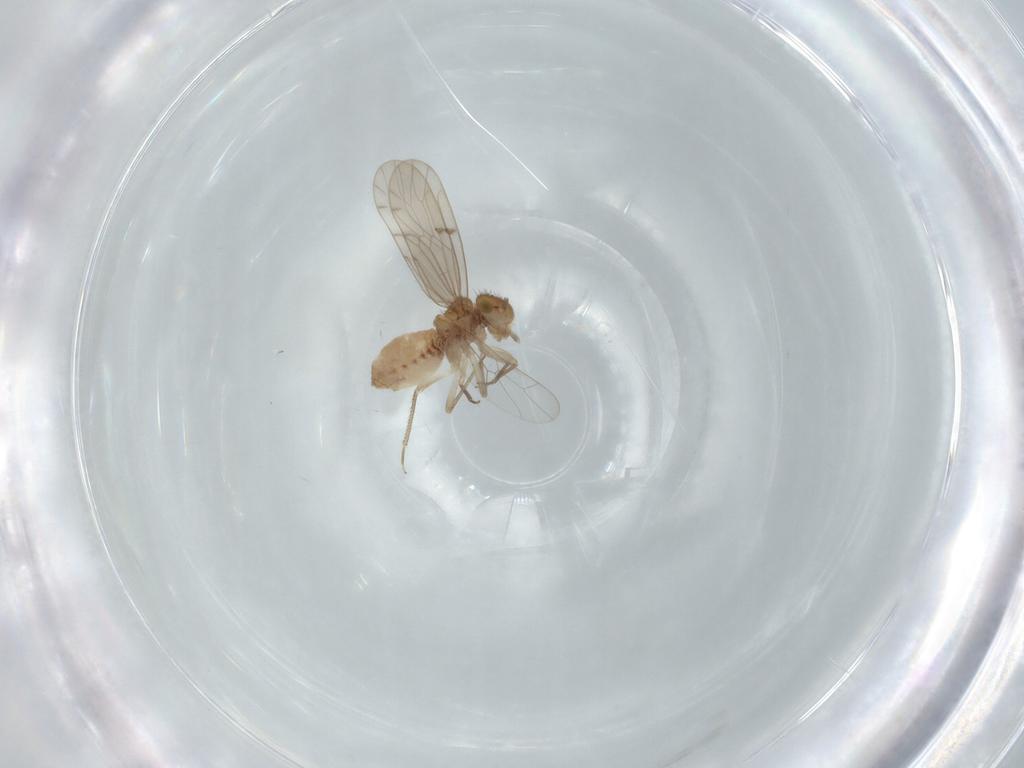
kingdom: Animalia
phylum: Arthropoda
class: Insecta
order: Psocodea
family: Ectopsocidae
